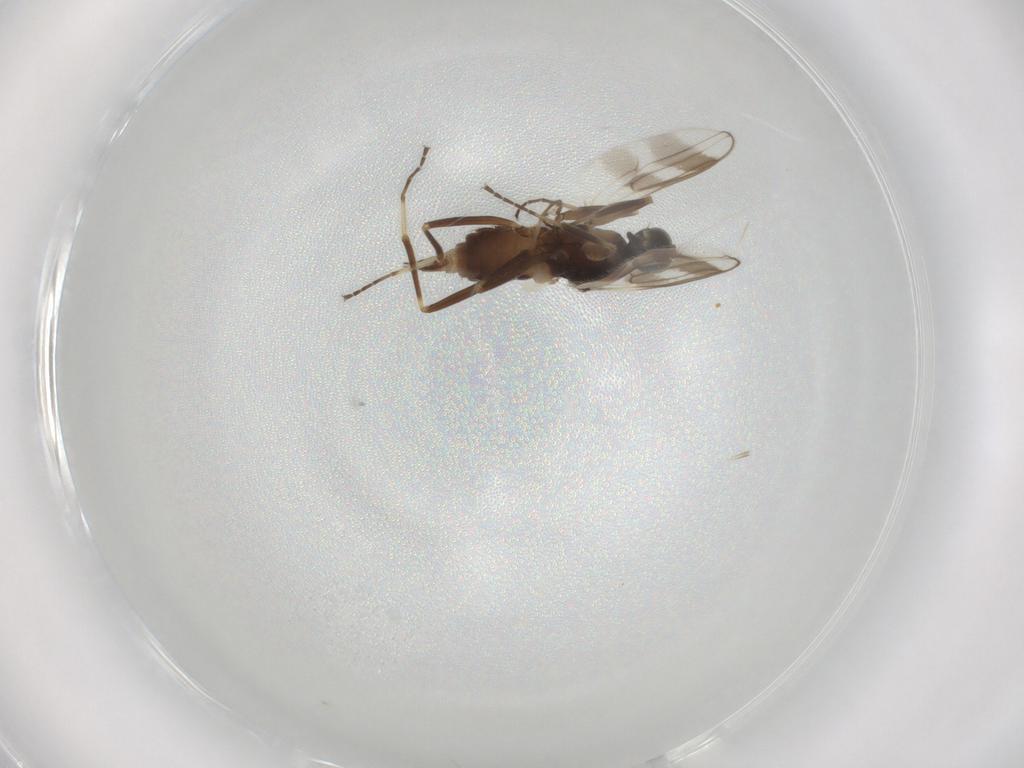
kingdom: Animalia
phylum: Arthropoda
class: Insecta
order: Diptera
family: Hybotidae
